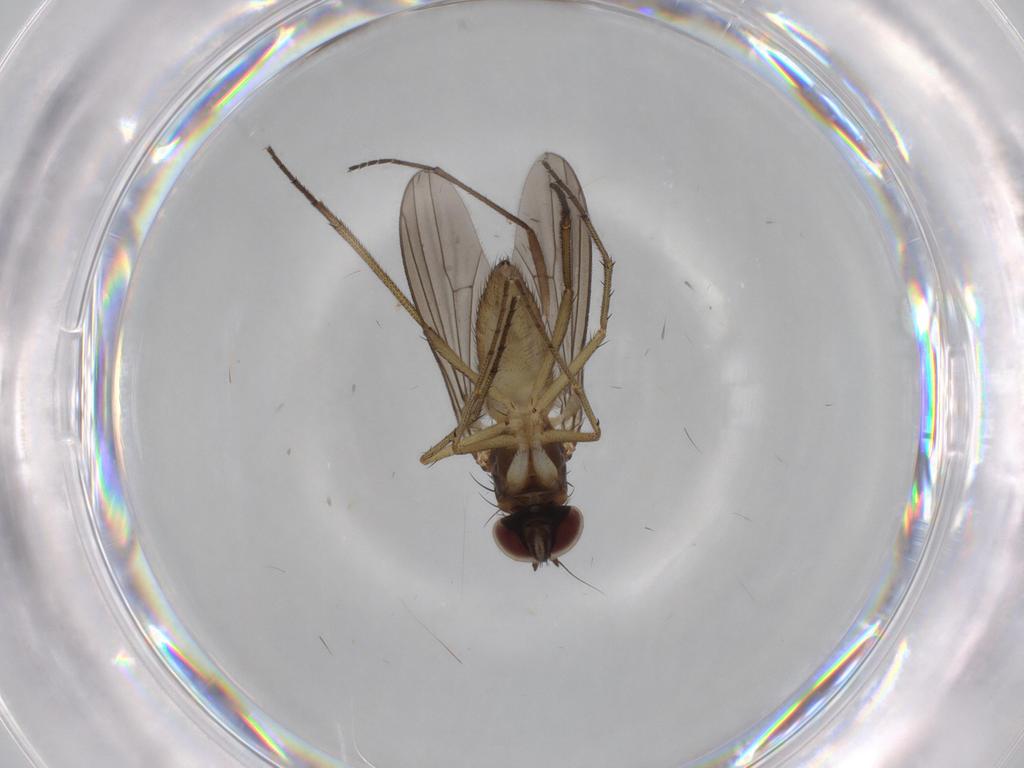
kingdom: Animalia
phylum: Arthropoda
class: Insecta
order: Diptera
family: Dolichopodidae
